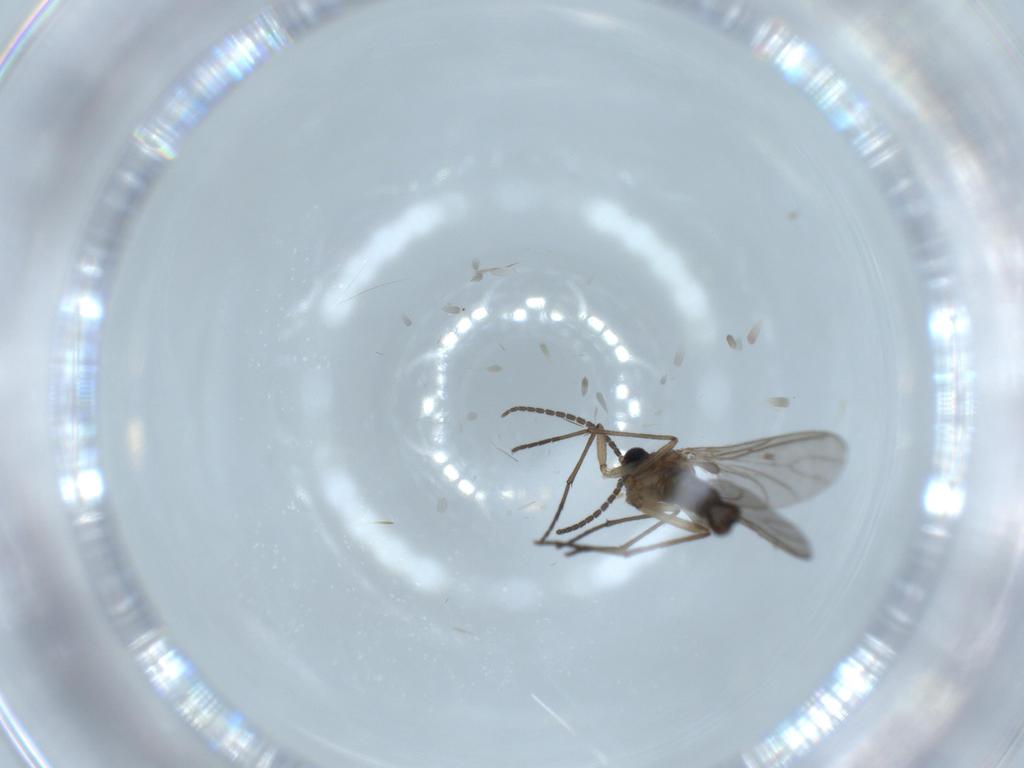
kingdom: Animalia
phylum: Arthropoda
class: Insecta
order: Diptera
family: Sciaridae
